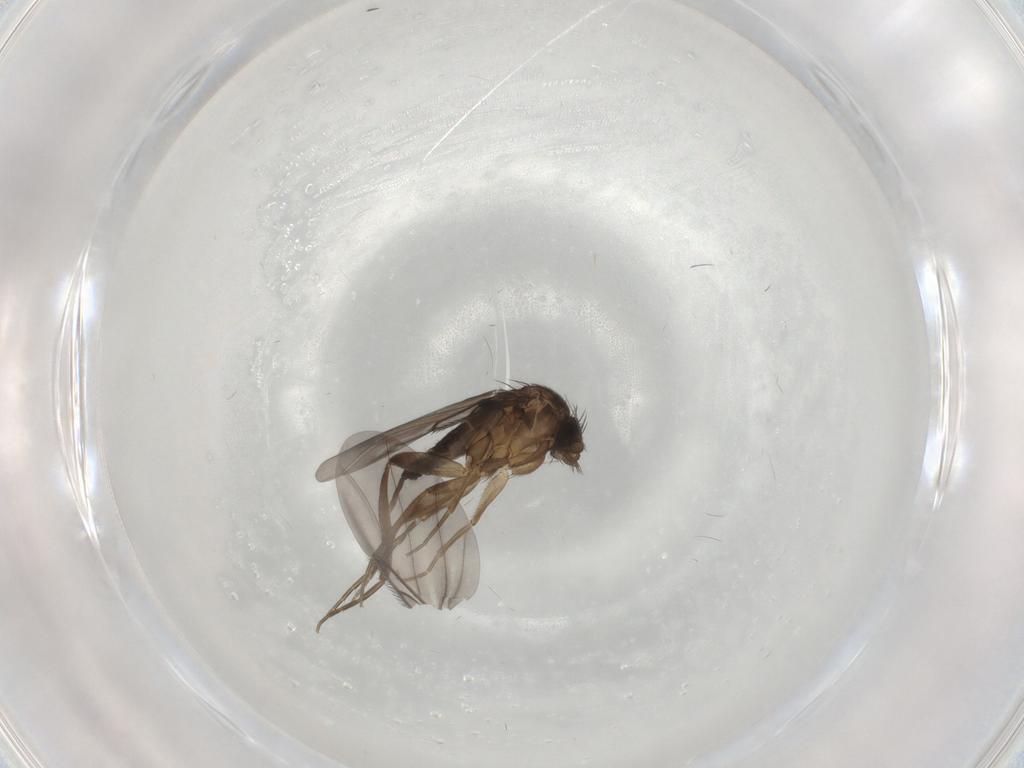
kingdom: Animalia
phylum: Arthropoda
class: Insecta
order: Diptera
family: Phoridae
